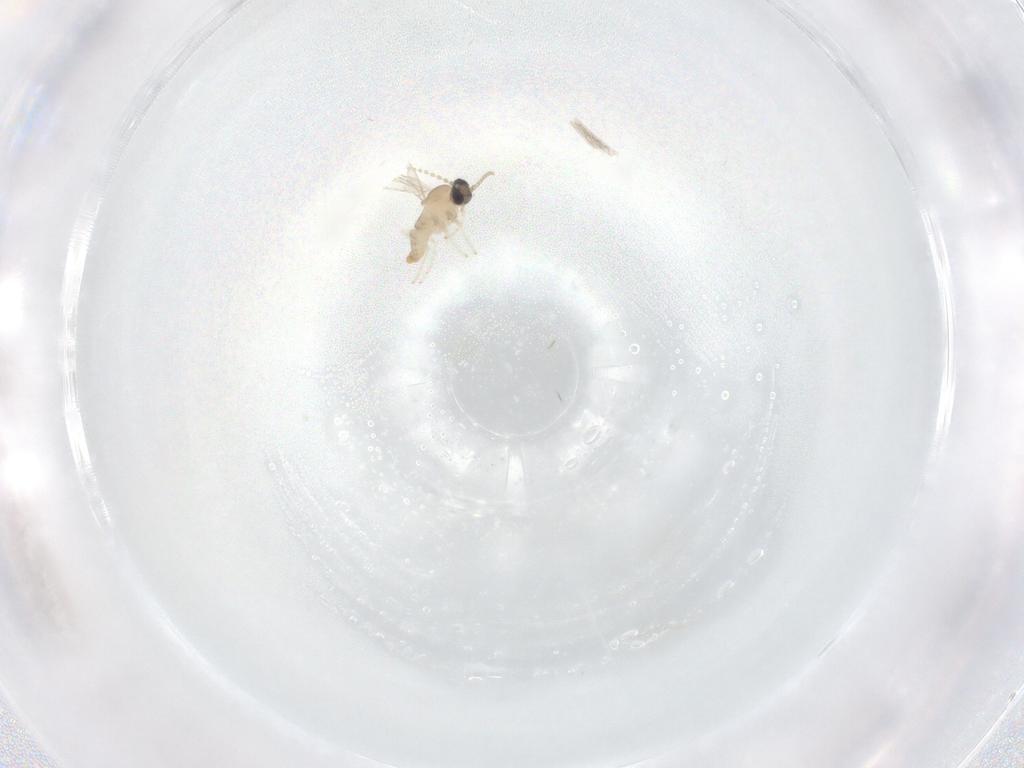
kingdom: Animalia
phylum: Arthropoda
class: Insecta
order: Diptera
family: Cecidomyiidae
